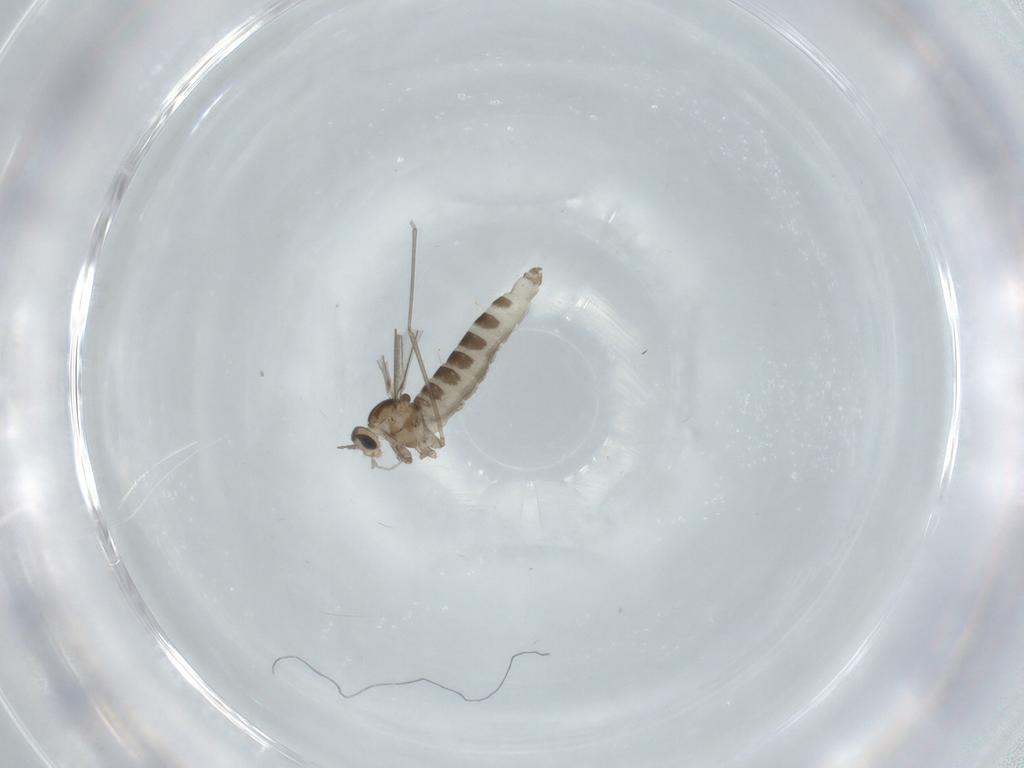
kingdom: Animalia
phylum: Arthropoda
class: Insecta
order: Diptera
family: Cecidomyiidae
